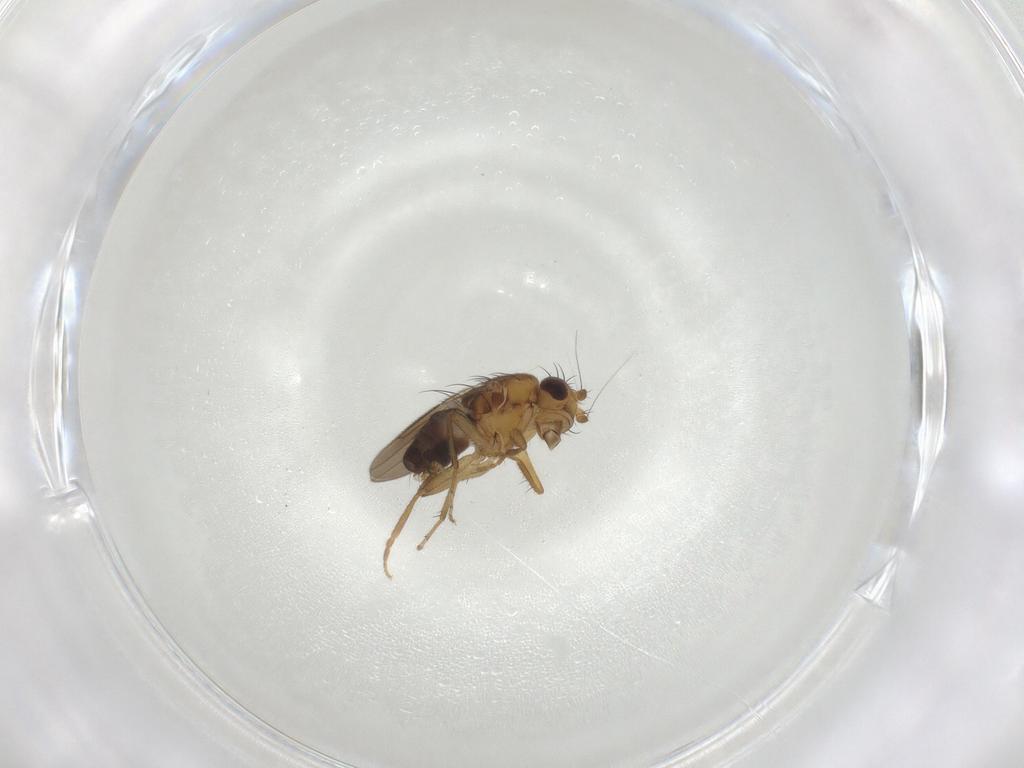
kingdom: Animalia
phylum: Arthropoda
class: Insecta
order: Diptera
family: Sphaeroceridae
